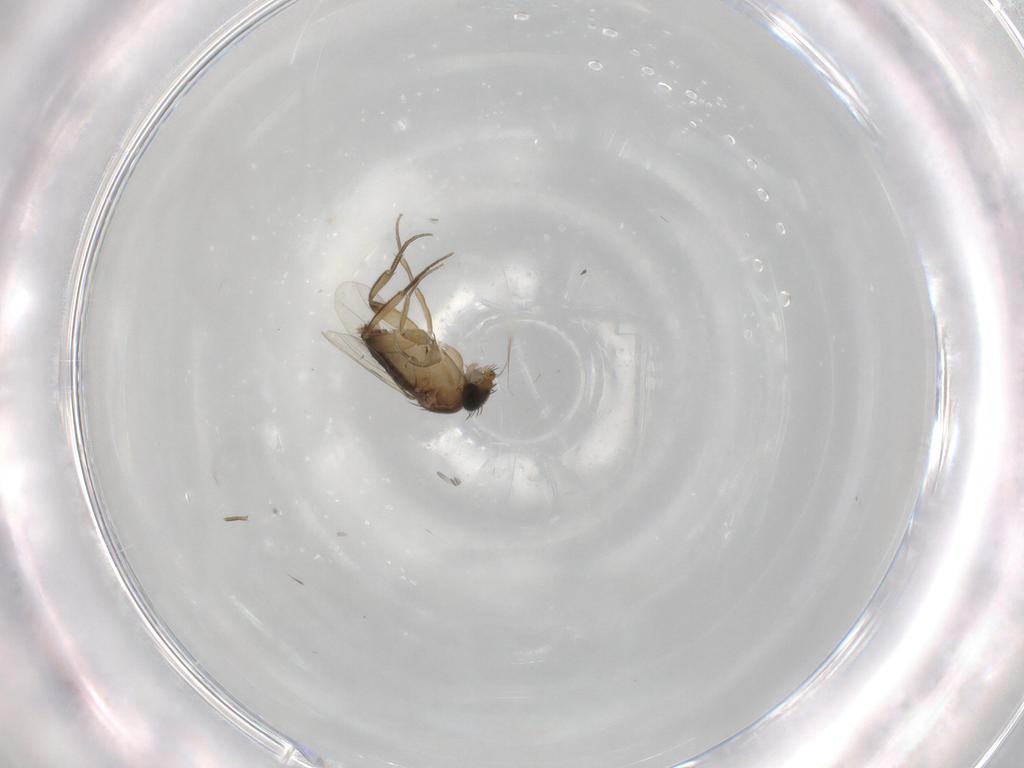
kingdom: Animalia
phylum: Arthropoda
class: Insecta
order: Diptera
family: Phoridae
